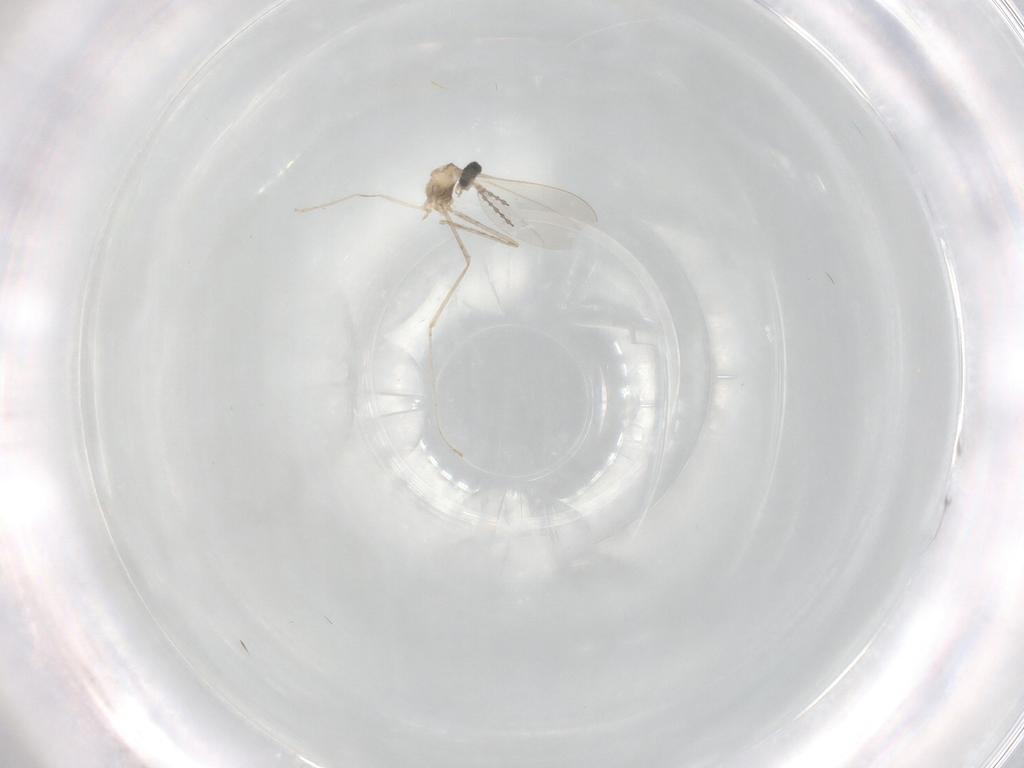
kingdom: Animalia
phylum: Arthropoda
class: Insecta
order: Diptera
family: Cecidomyiidae
